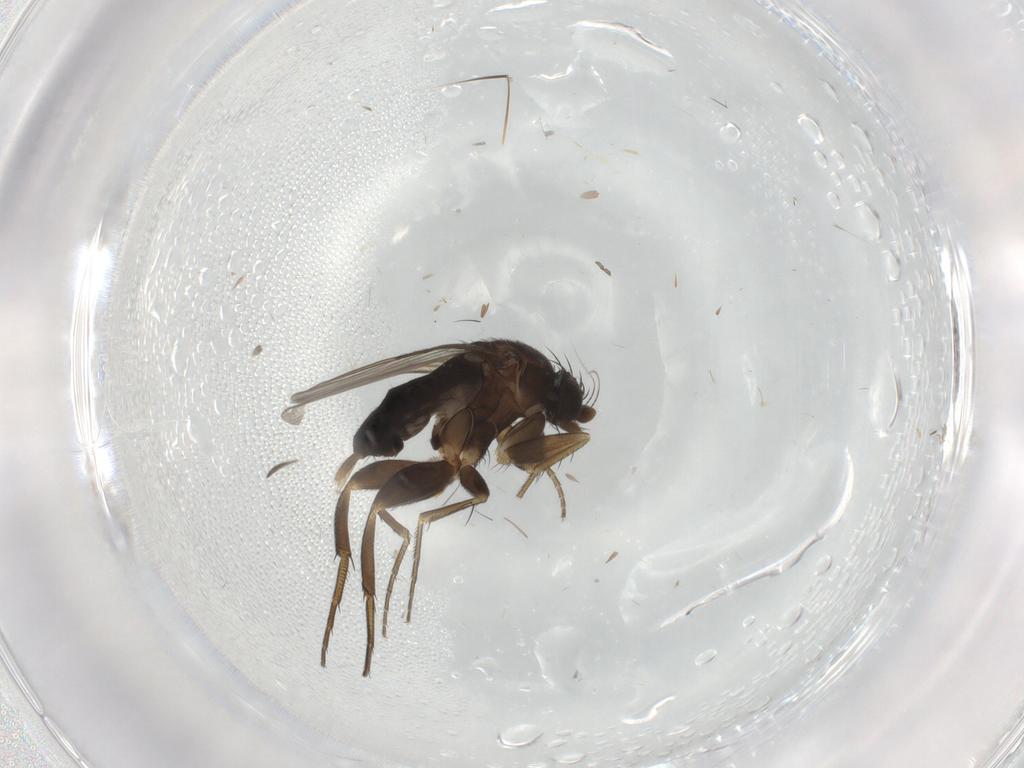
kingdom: Animalia
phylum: Arthropoda
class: Insecta
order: Diptera
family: Phoridae
